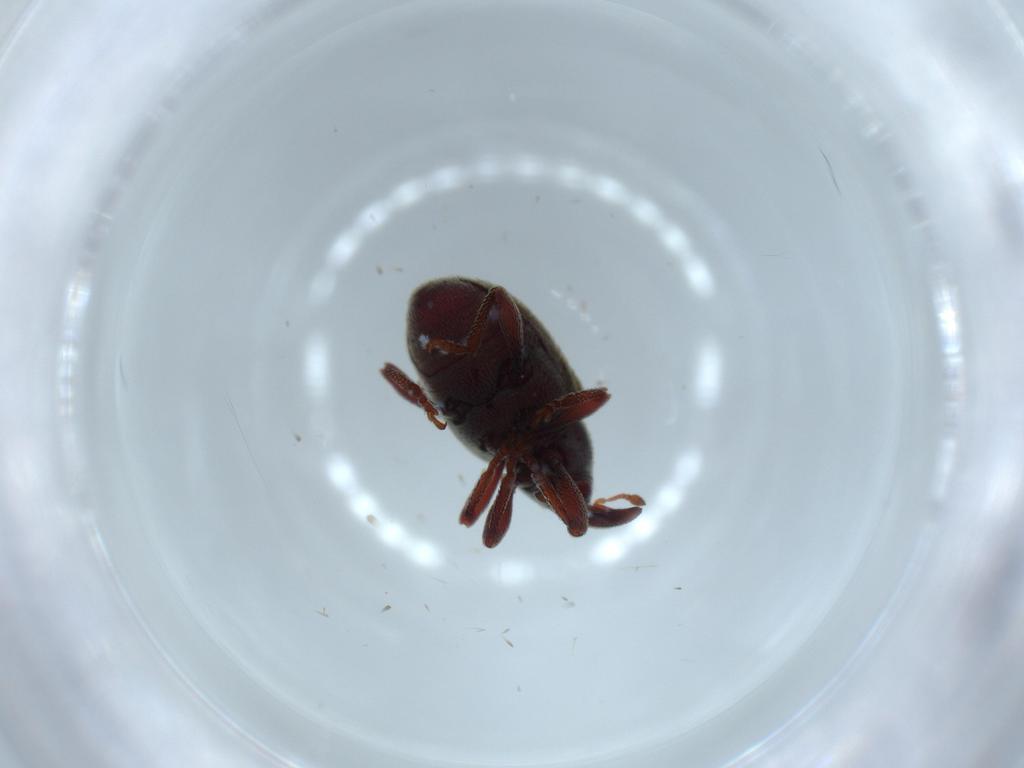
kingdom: Animalia
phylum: Arthropoda
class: Insecta
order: Coleoptera
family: Curculionidae
